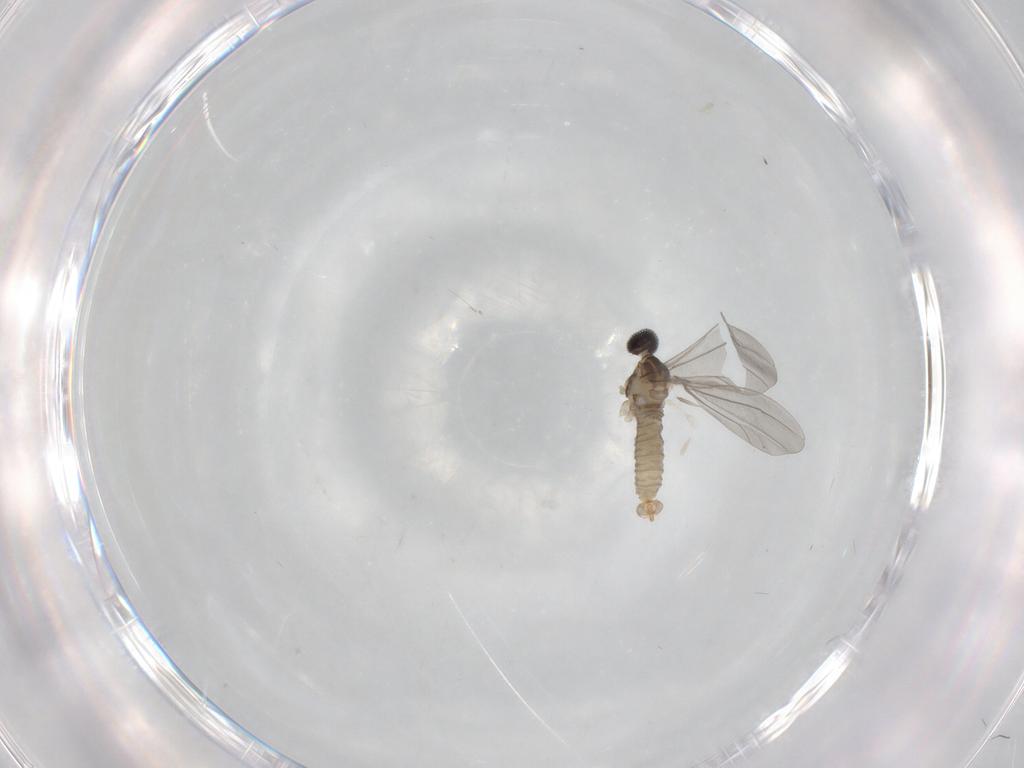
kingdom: Animalia
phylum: Arthropoda
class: Insecta
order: Diptera
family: Cecidomyiidae
